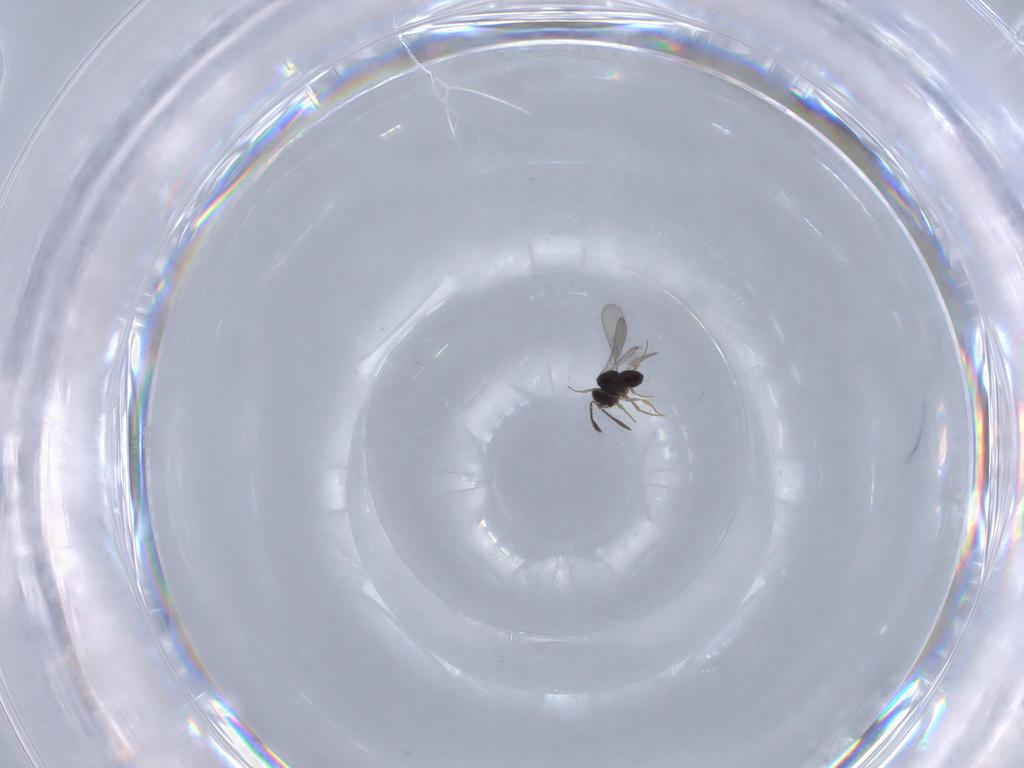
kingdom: Animalia
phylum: Arthropoda
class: Insecta
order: Hymenoptera
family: Scelionidae
